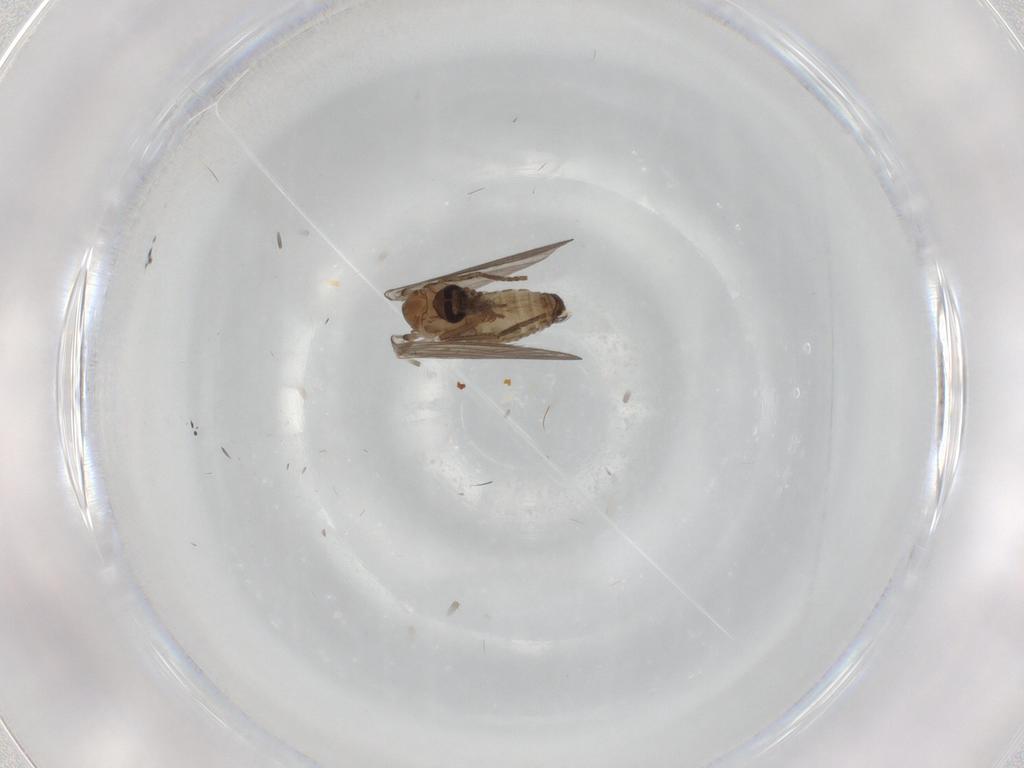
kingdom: Animalia
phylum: Arthropoda
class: Insecta
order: Diptera
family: Psychodidae
